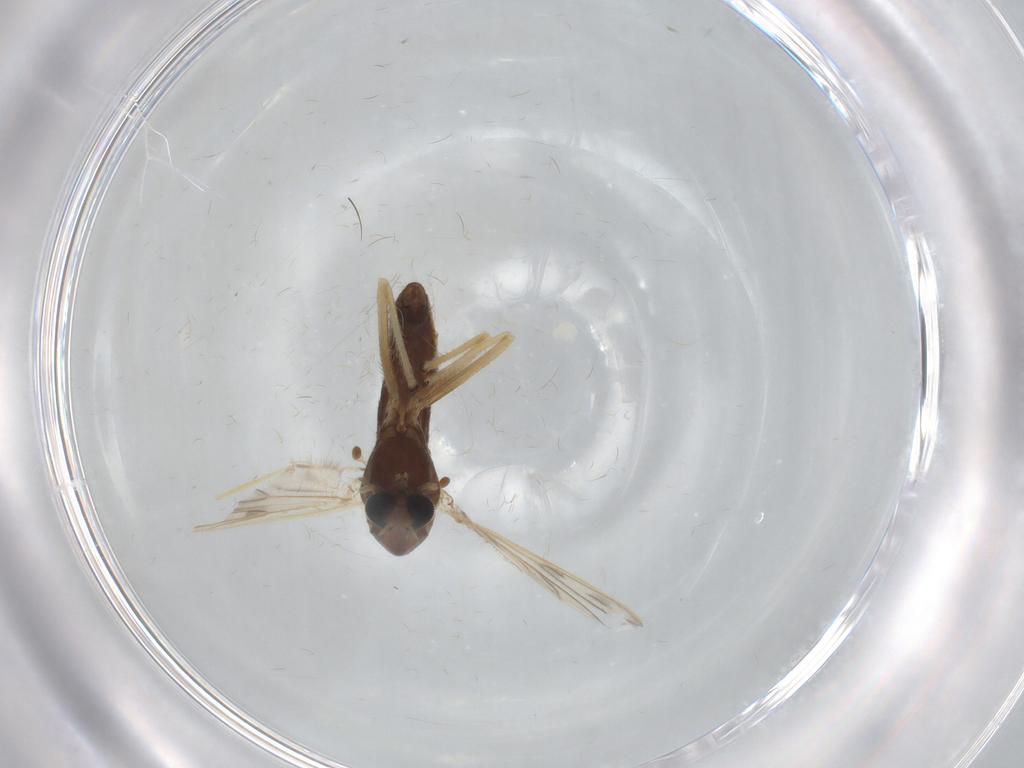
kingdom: Animalia
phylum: Arthropoda
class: Insecta
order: Diptera
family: Chironomidae
